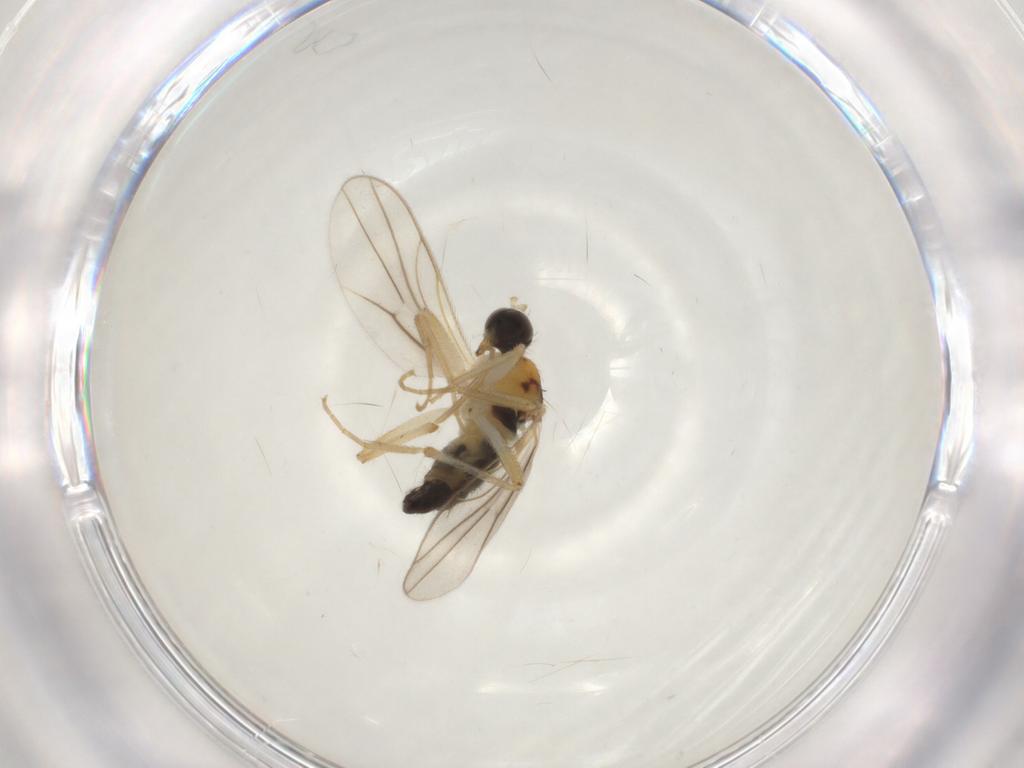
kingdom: Animalia
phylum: Arthropoda
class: Insecta
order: Diptera
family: Hybotidae
